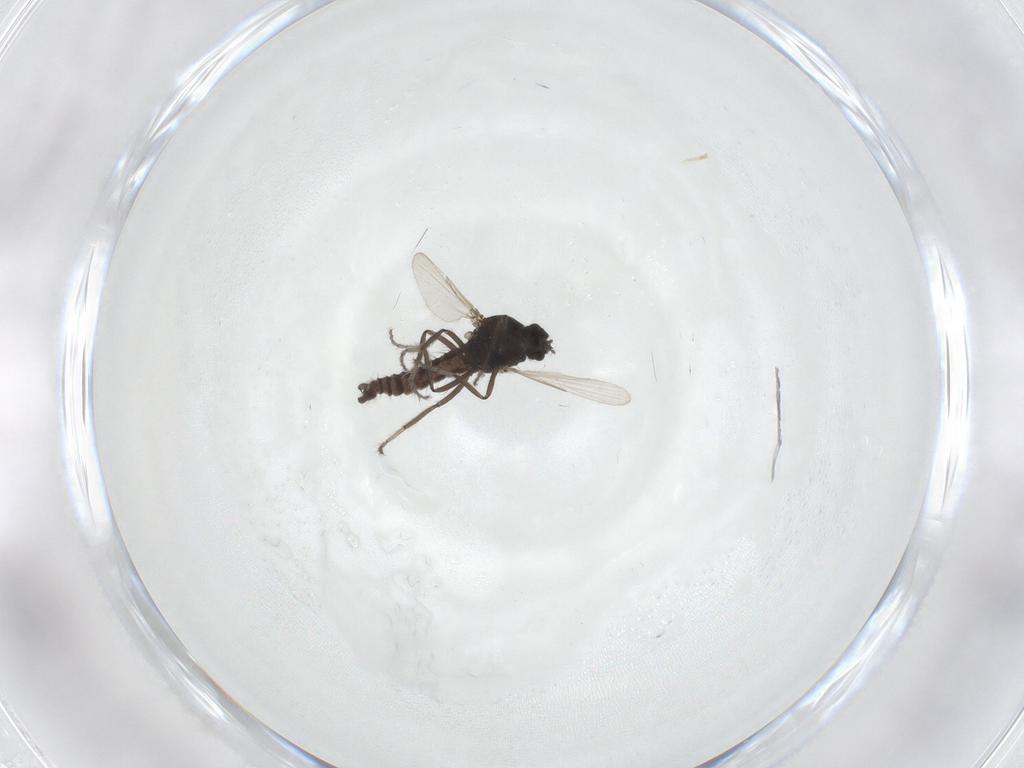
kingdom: Animalia
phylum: Arthropoda
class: Insecta
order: Diptera
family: Ceratopogonidae
